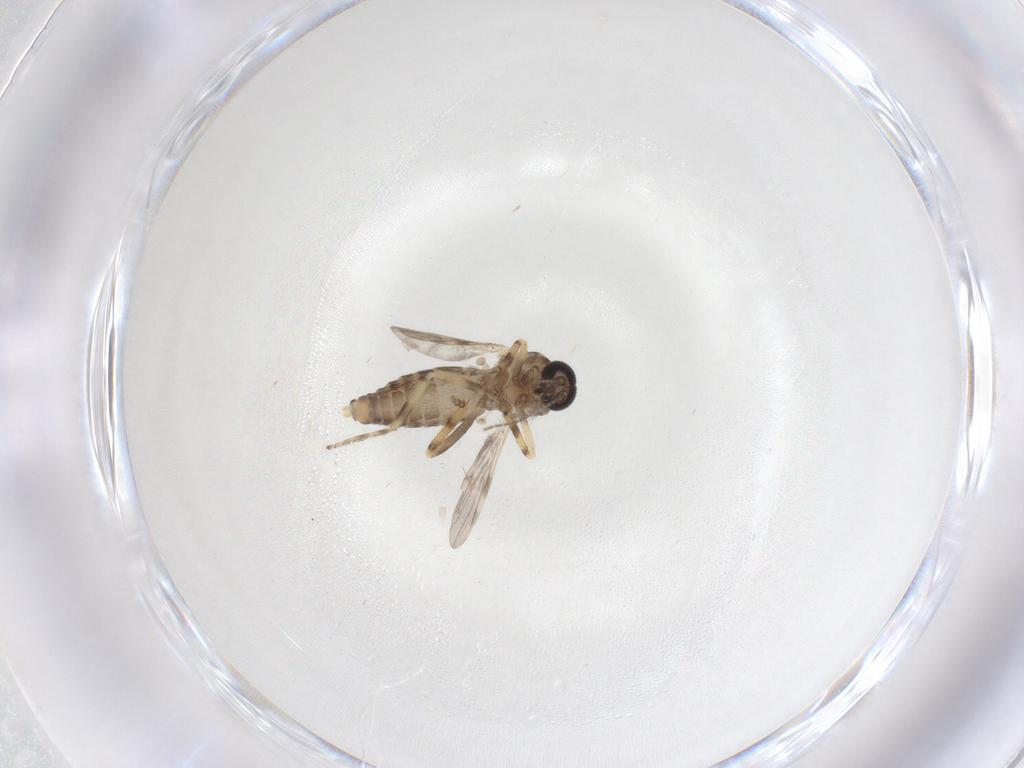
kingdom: Animalia
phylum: Arthropoda
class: Insecta
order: Diptera
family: Ceratopogonidae
